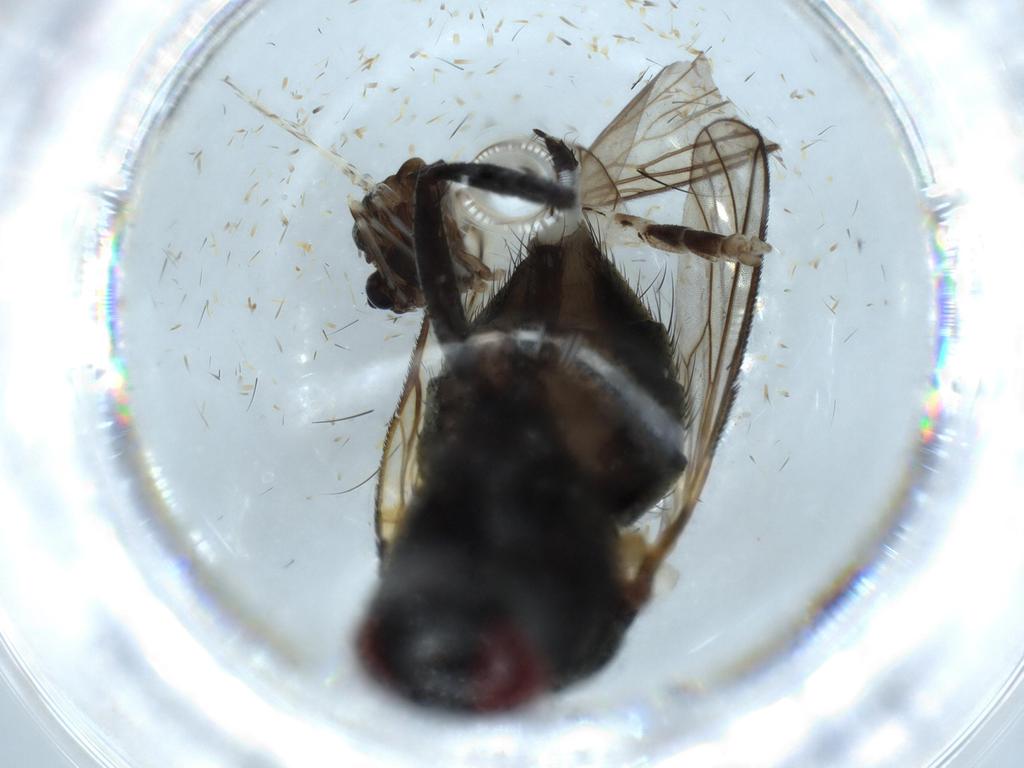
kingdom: Animalia
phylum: Arthropoda
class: Insecta
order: Diptera
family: Muscidae
